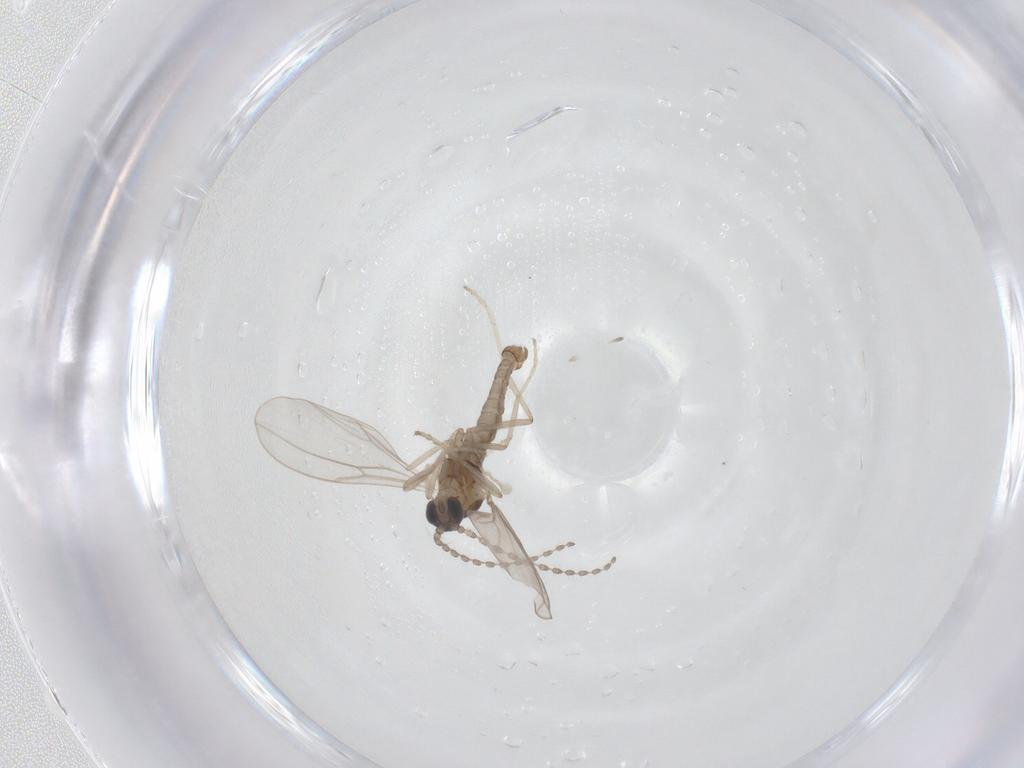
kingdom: Animalia
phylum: Arthropoda
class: Insecta
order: Diptera
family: Cecidomyiidae
